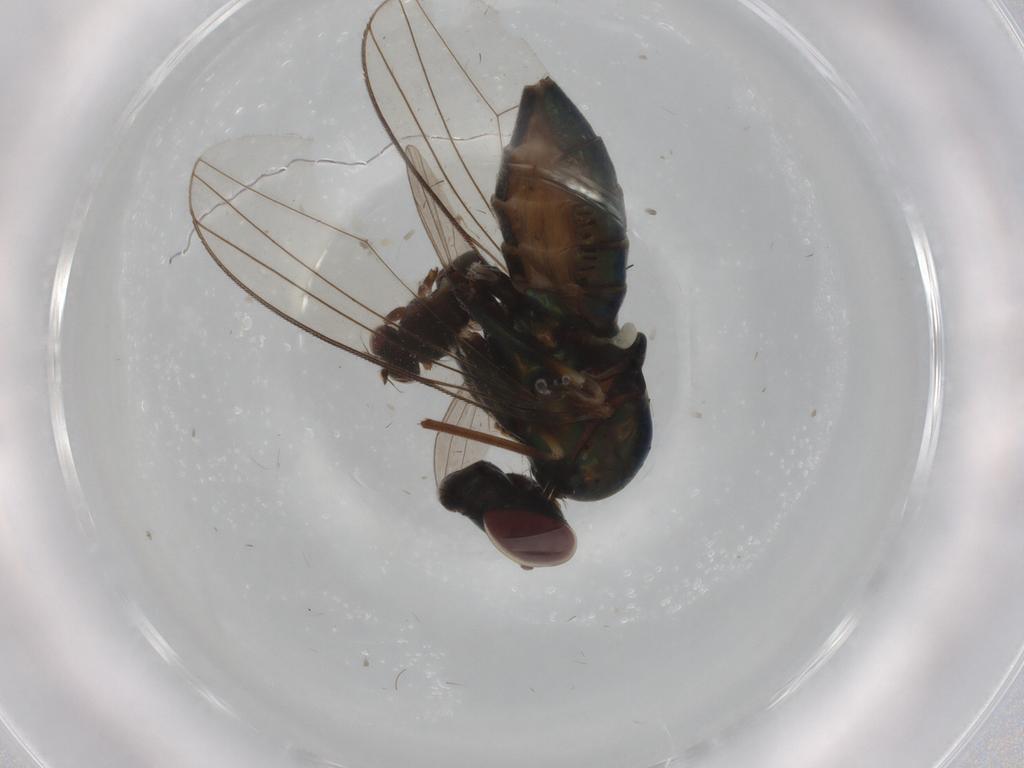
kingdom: Animalia
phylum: Arthropoda
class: Insecta
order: Diptera
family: Ephydridae
